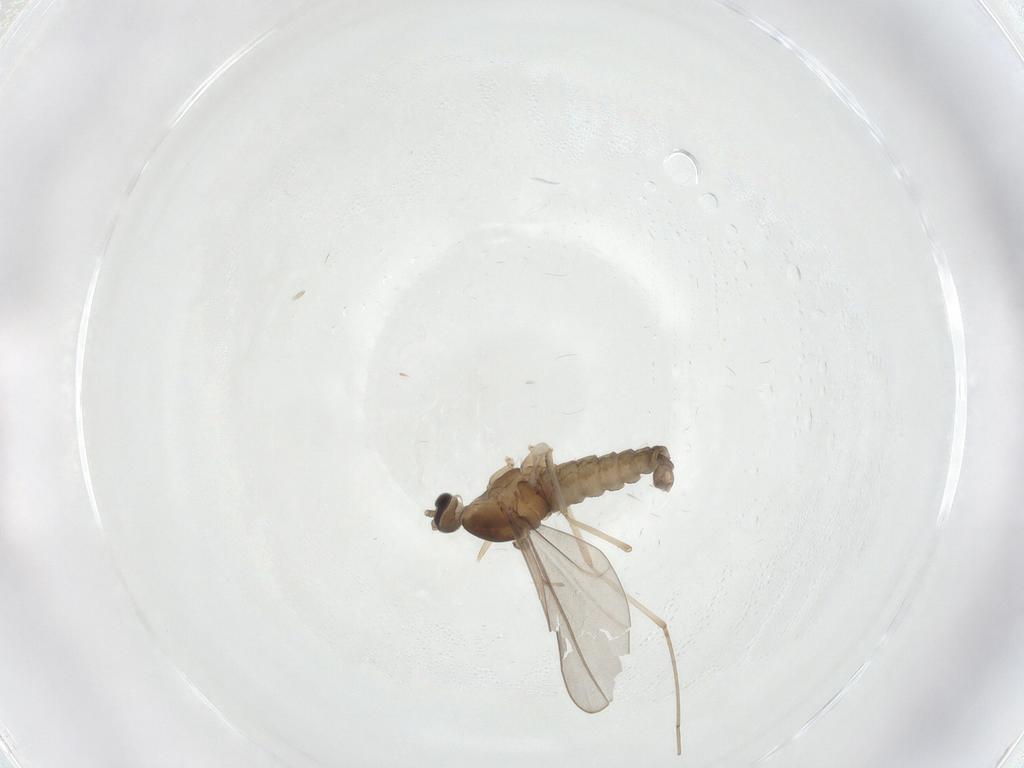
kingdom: Animalia
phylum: Arthropoda
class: Insecta
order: Diptera
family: Cecidomyiidae
